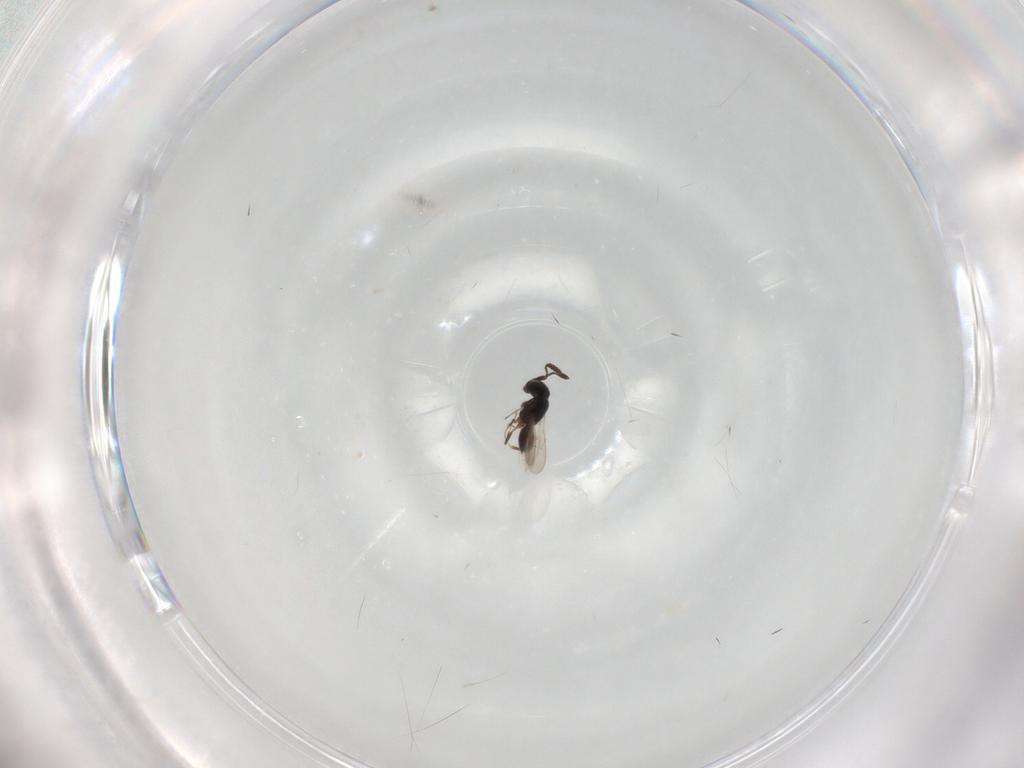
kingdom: Animalia
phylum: Arthropoda
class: Insecta
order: Hymenoptera
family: Scelionidae
